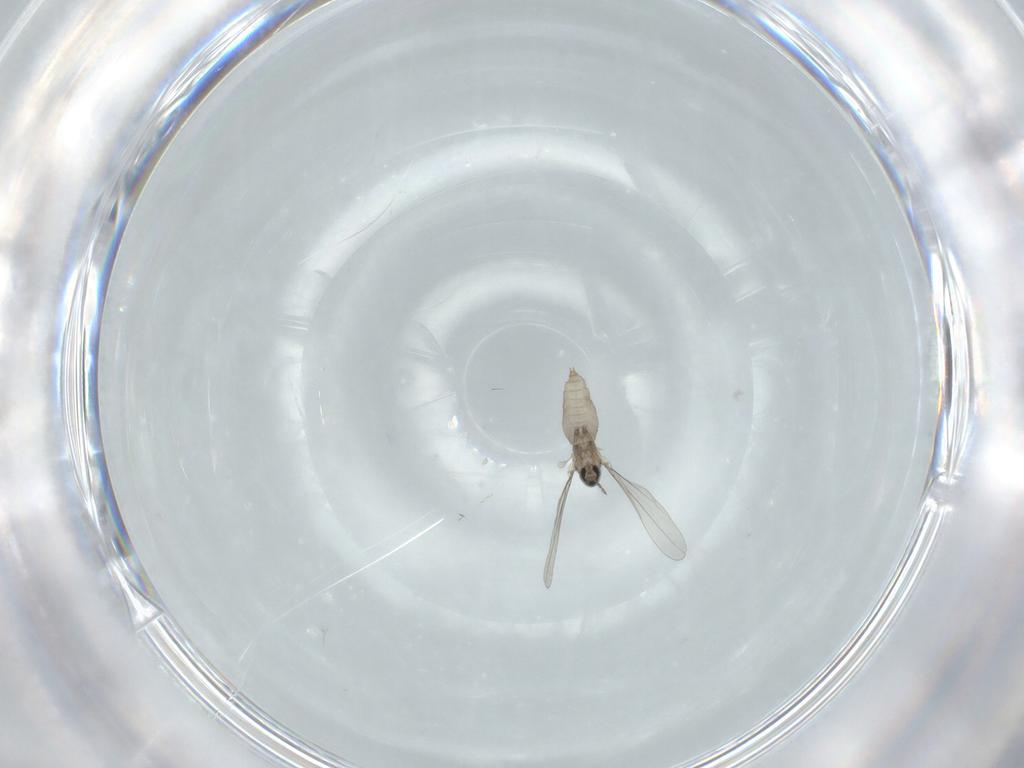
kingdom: Animalia
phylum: Arthropoda
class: Insecta
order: Diptera
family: Cecidomyiidae
